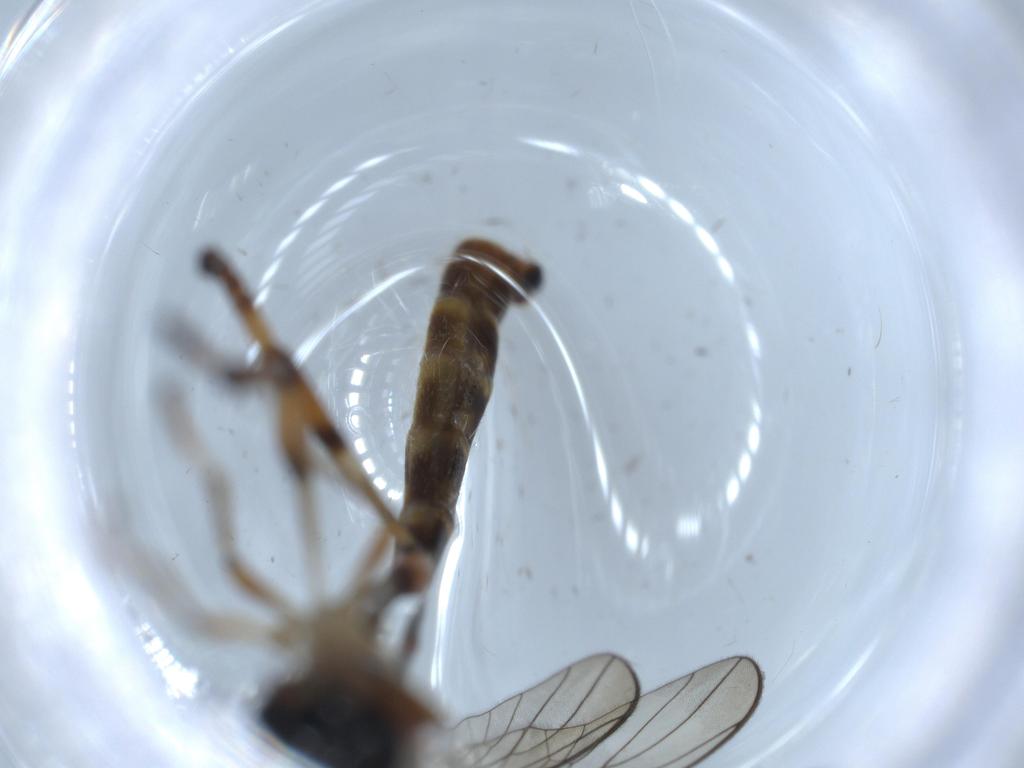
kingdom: Animalia
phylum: Arthropoda
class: Insecta
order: Diptera
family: Cecidomyiidae
